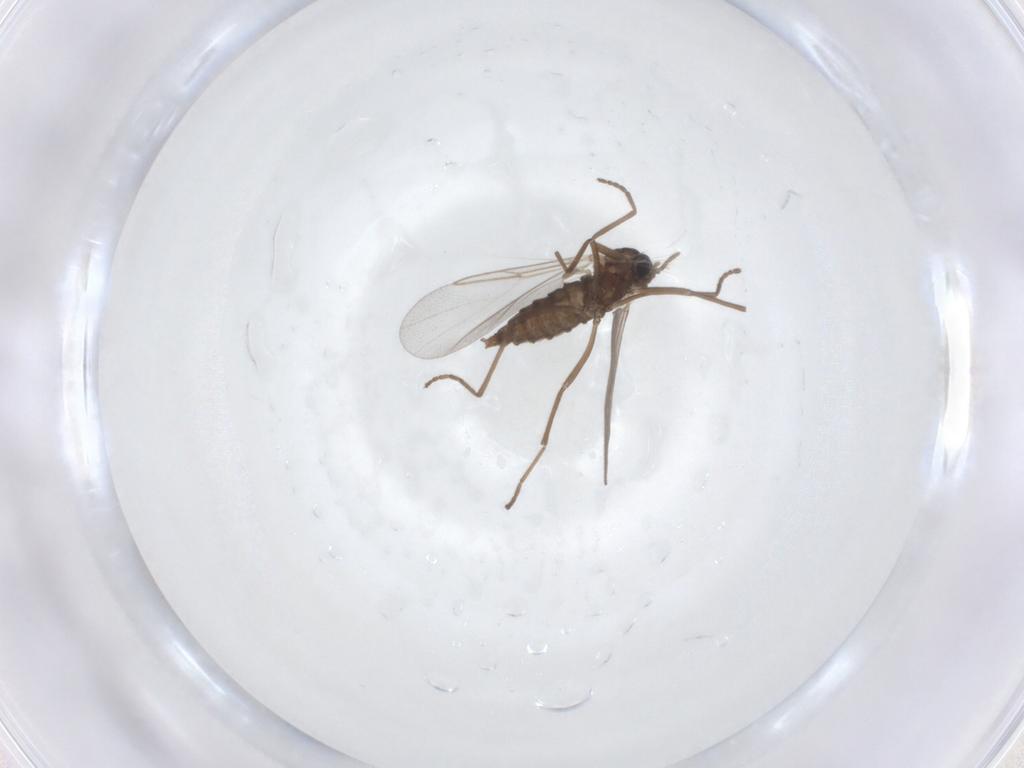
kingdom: Animalia
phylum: Arthropoda
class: Insecta
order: Diptera
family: Cecidomyiidae
